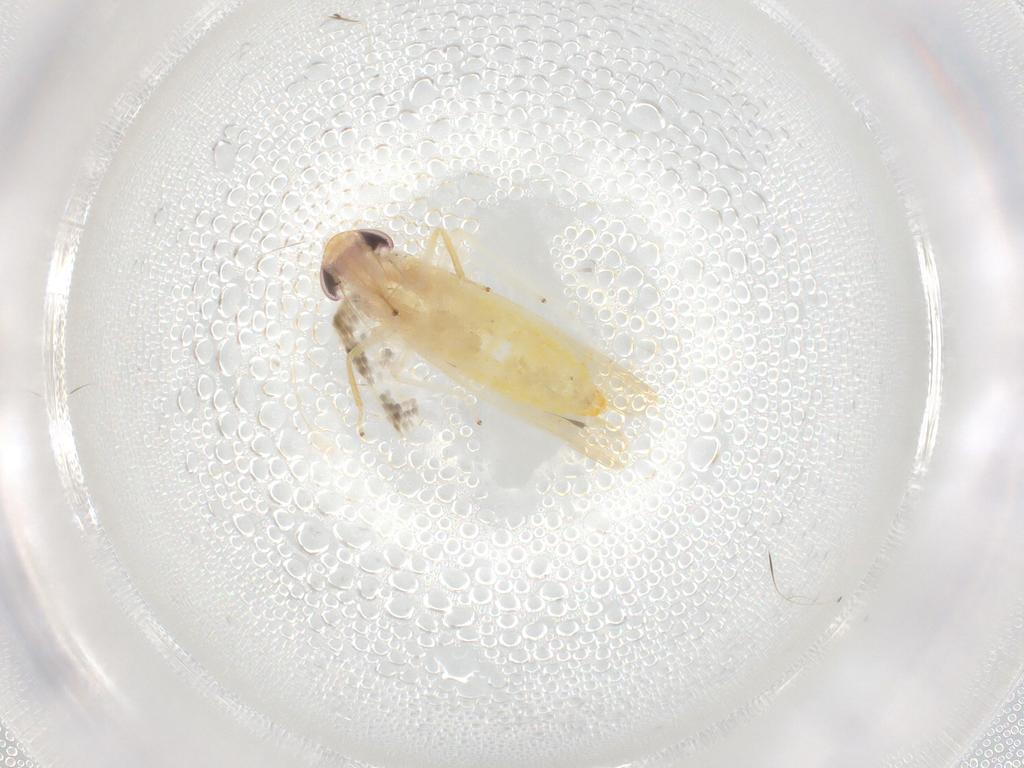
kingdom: Animalia
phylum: Arthropoda
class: Insecta
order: Hemiptera
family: Cicadellidae
